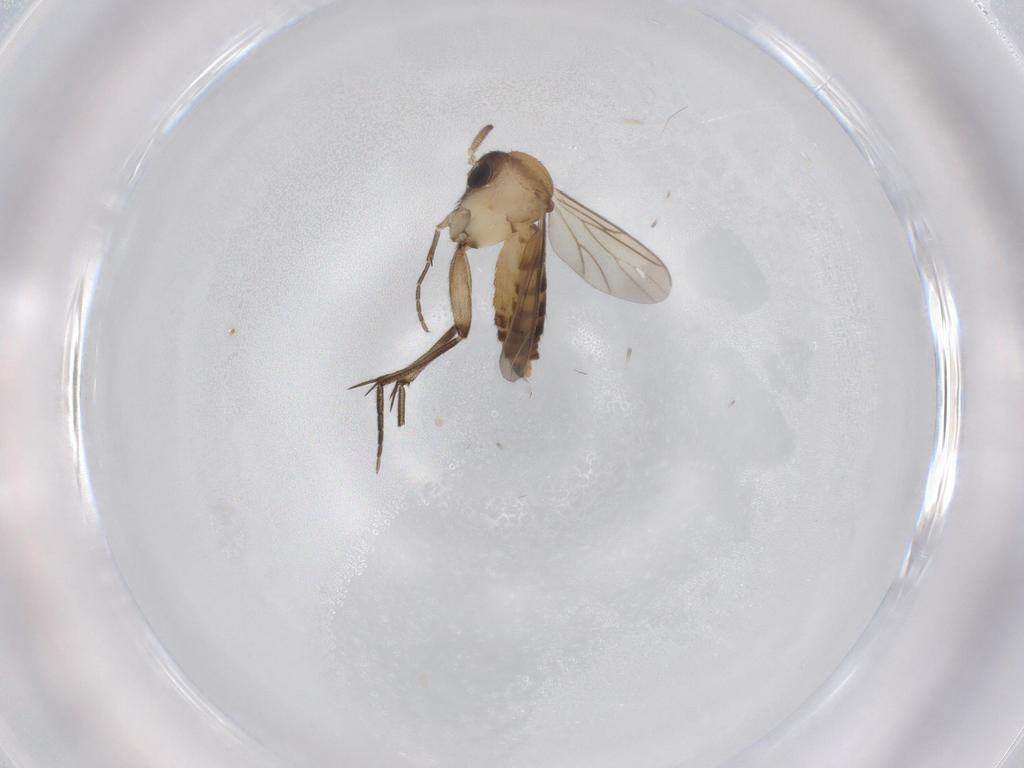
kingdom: Animalia
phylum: Arthropoda
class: Insecta
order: Diptera
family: Mycetophilidae
